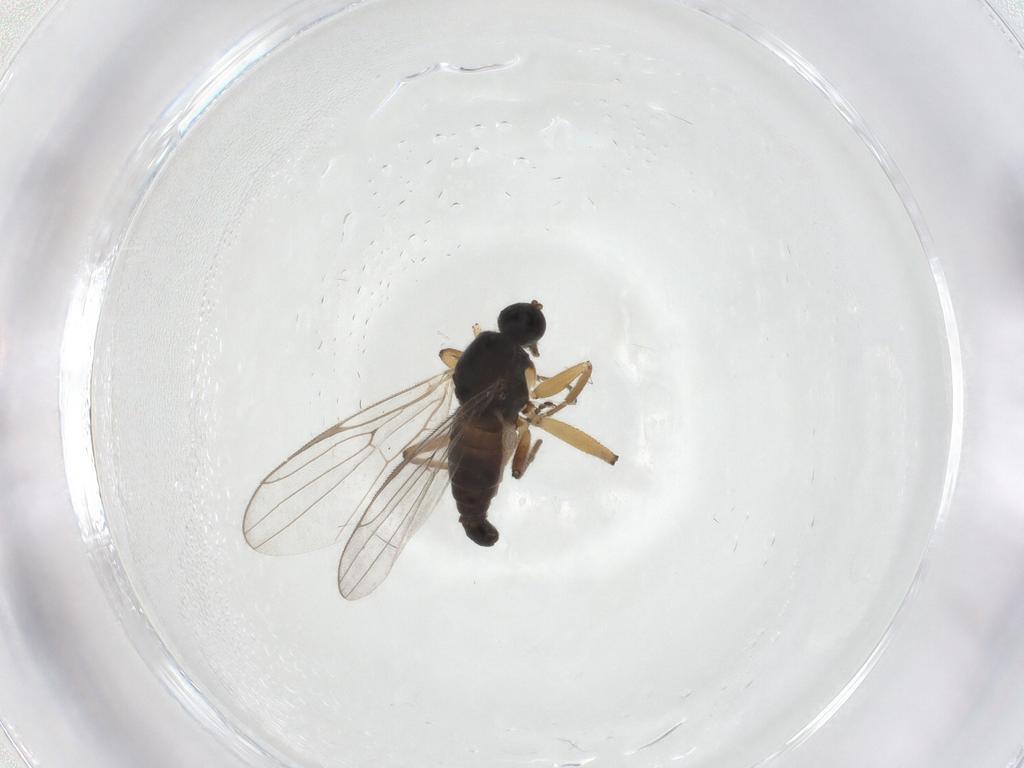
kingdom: Animalia
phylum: Arthropoda
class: Insecta
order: Diptera
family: Hybotidae
